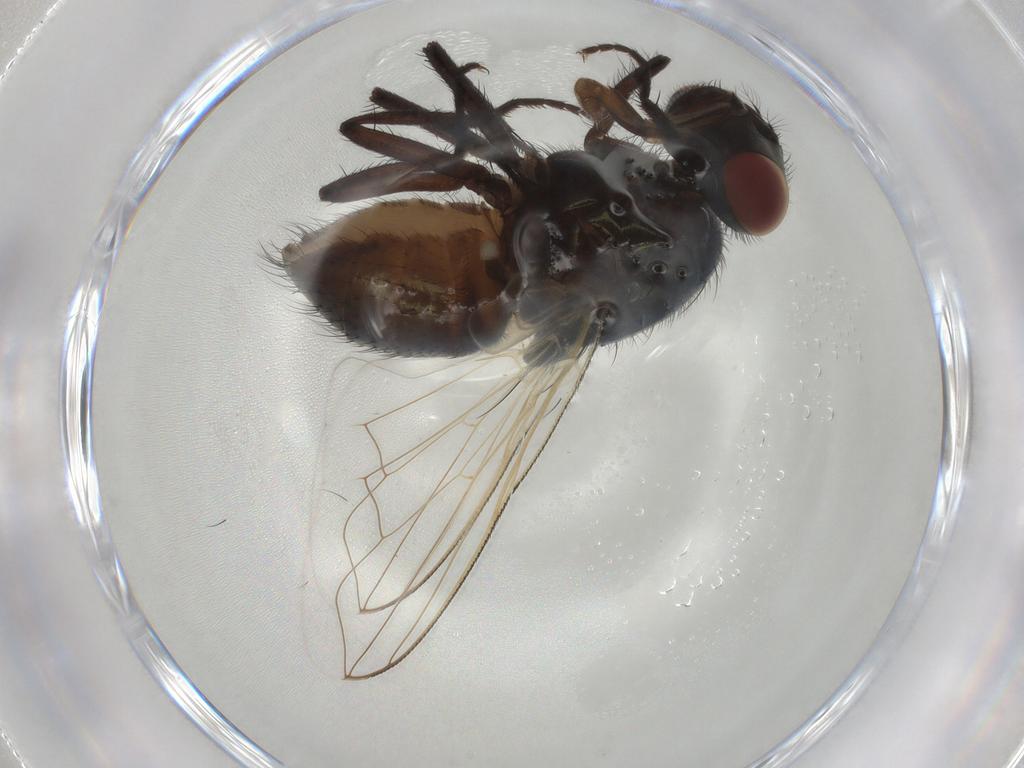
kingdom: Animalia
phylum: Arthropoda
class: Insecta
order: Diptera
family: Muscidae
